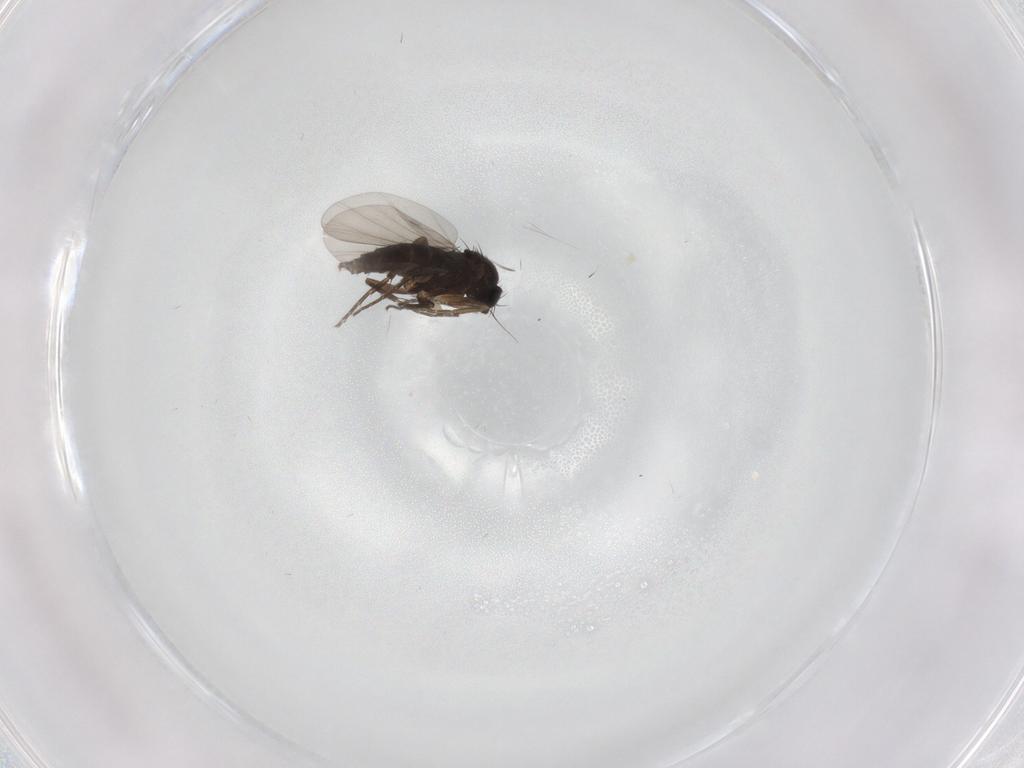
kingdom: Animalia
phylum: Arthropoda
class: Insecta
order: Diptera
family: Phoridae
